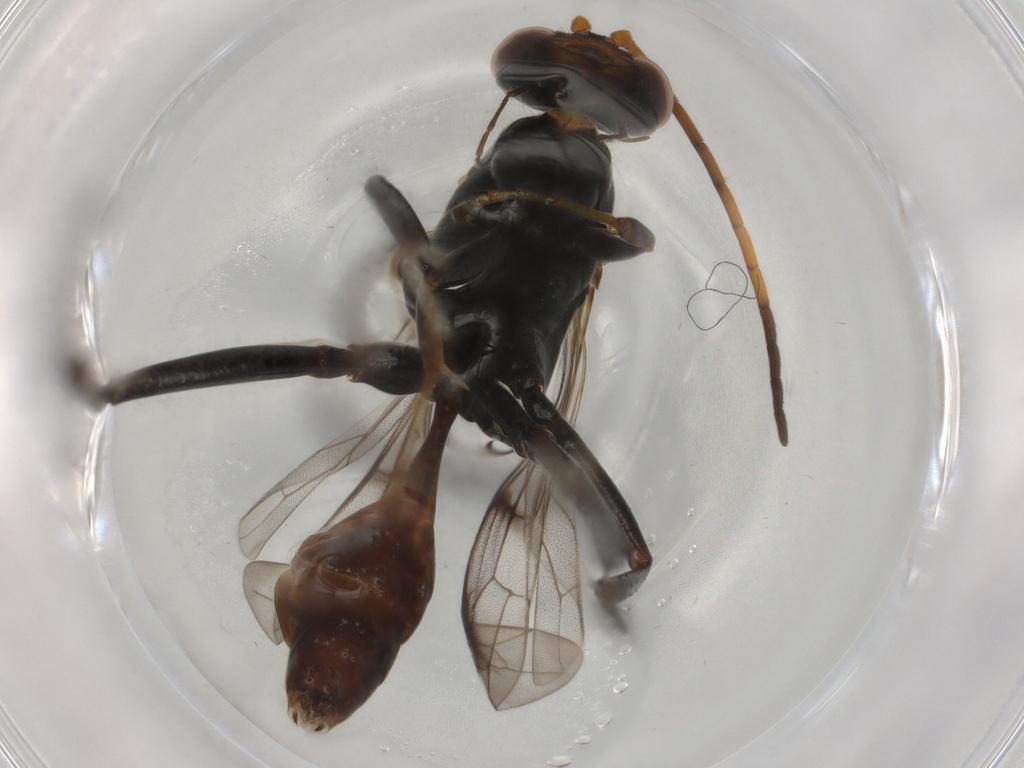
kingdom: Animalia
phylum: Arthropoda
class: Insecta
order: Hymenoptera
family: Pompilidae
